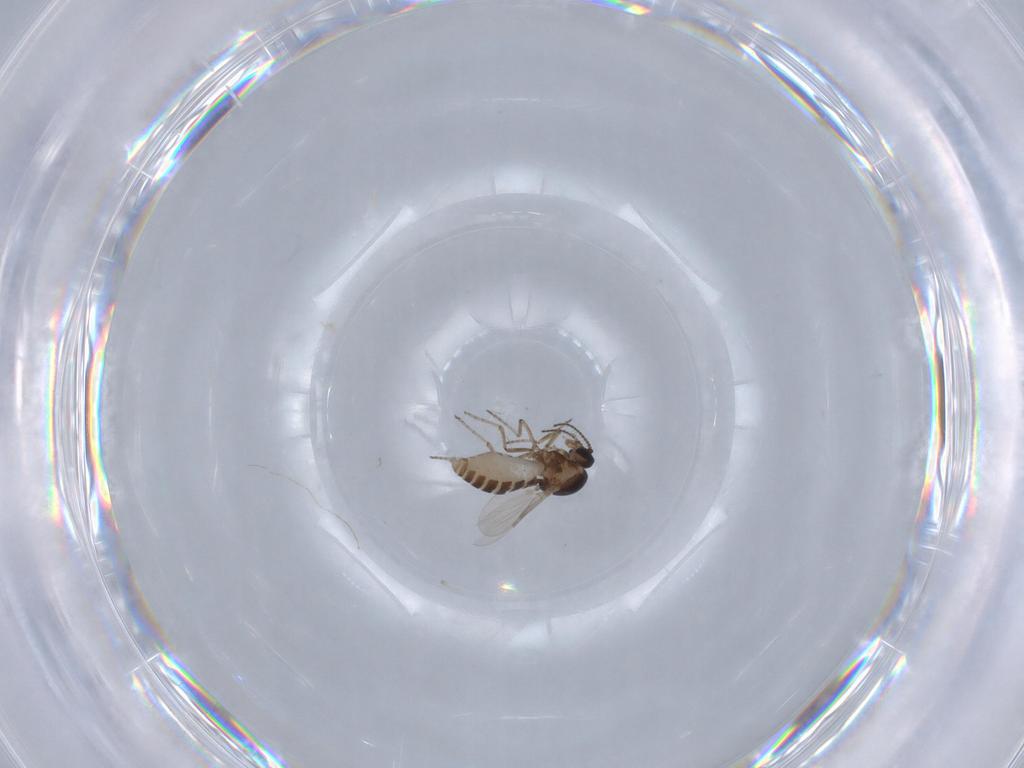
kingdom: Animalia
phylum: Arthropoda
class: Insecta
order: Diptera
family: Ceratopogonidae
